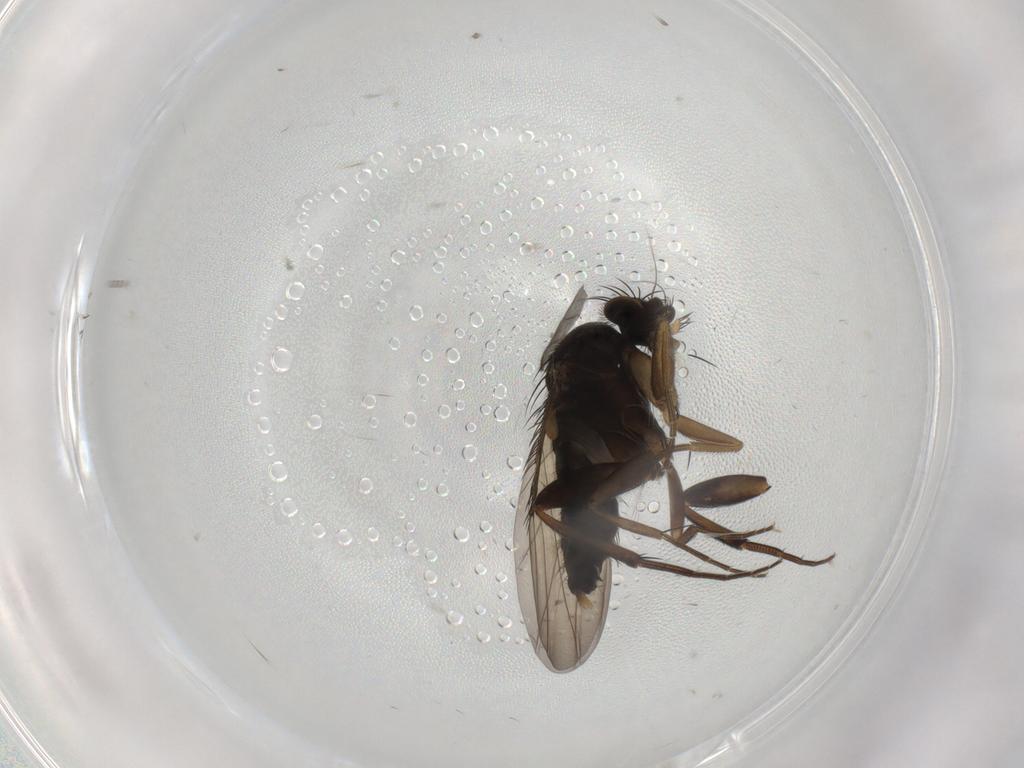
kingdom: Animalia
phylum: Arthropoda
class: Insecta
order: Diptera
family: Phoridae
